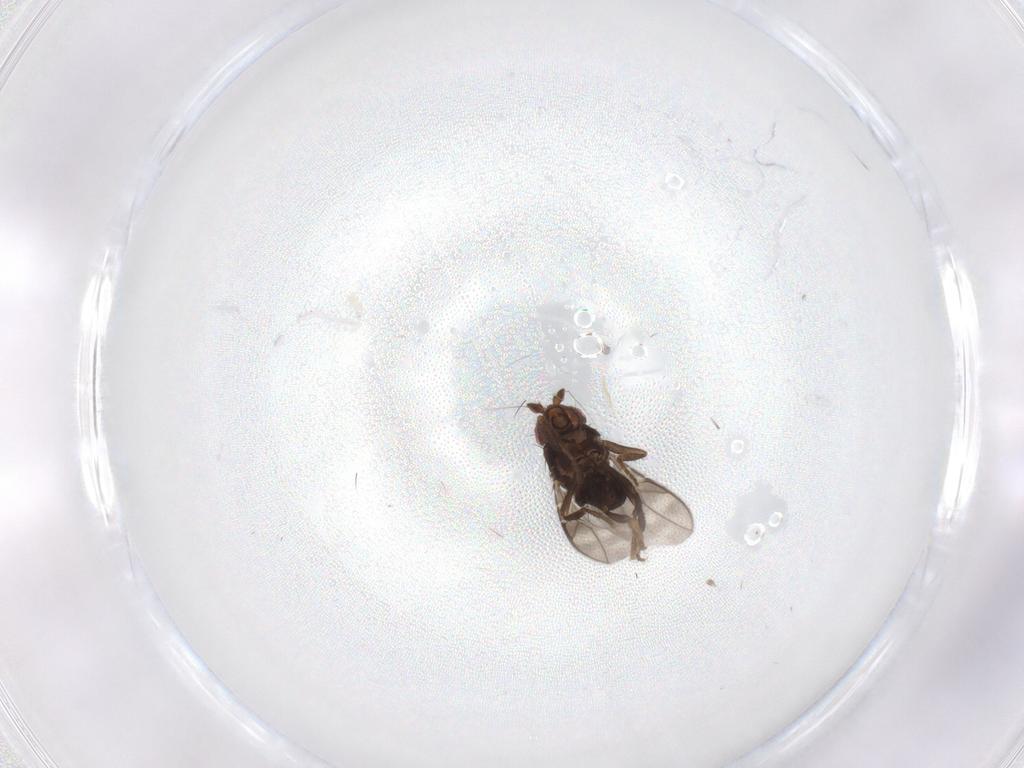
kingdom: Animalia
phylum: Arthropoda
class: Insecta
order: Diptera
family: Sphaeroceridae
